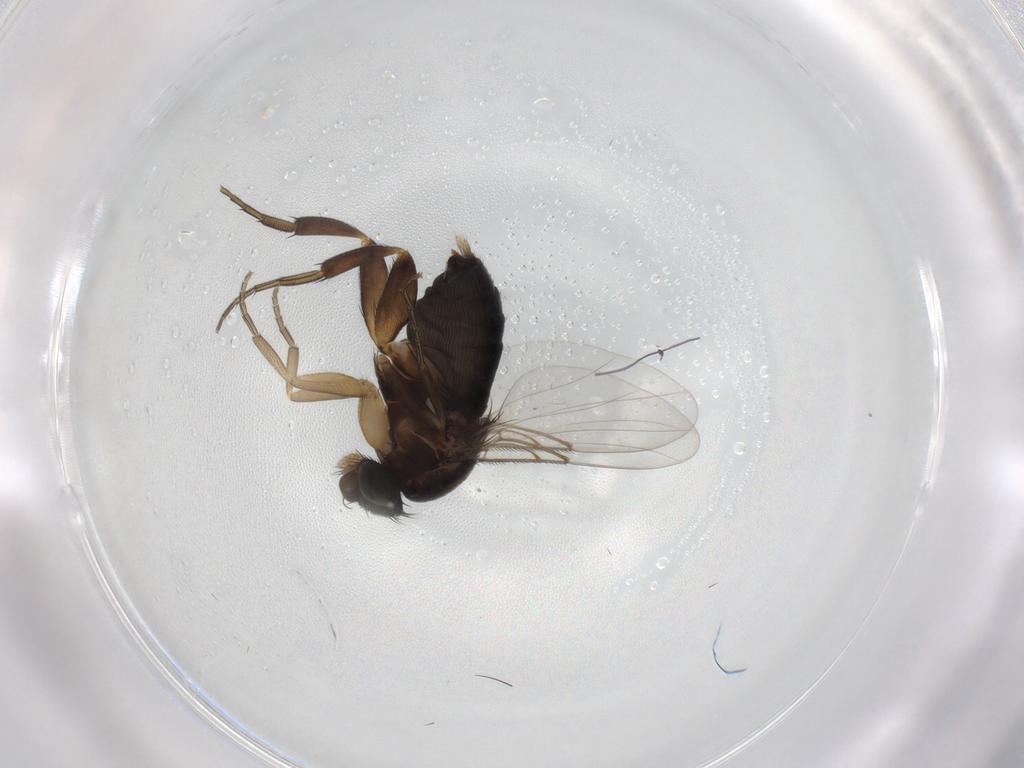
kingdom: Animalia
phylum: Arthropoda
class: Insecta
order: Diptera
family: Phoridae
